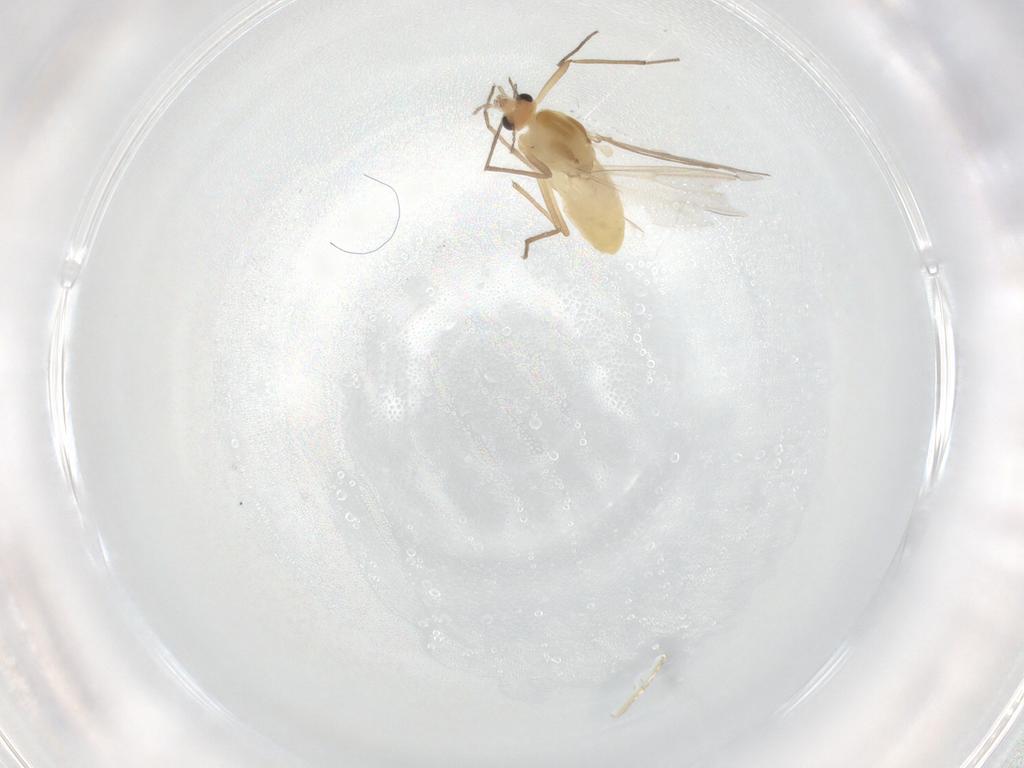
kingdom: Animalia
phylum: Arthropoda
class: Insecta
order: Diptera
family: Chironomidae
